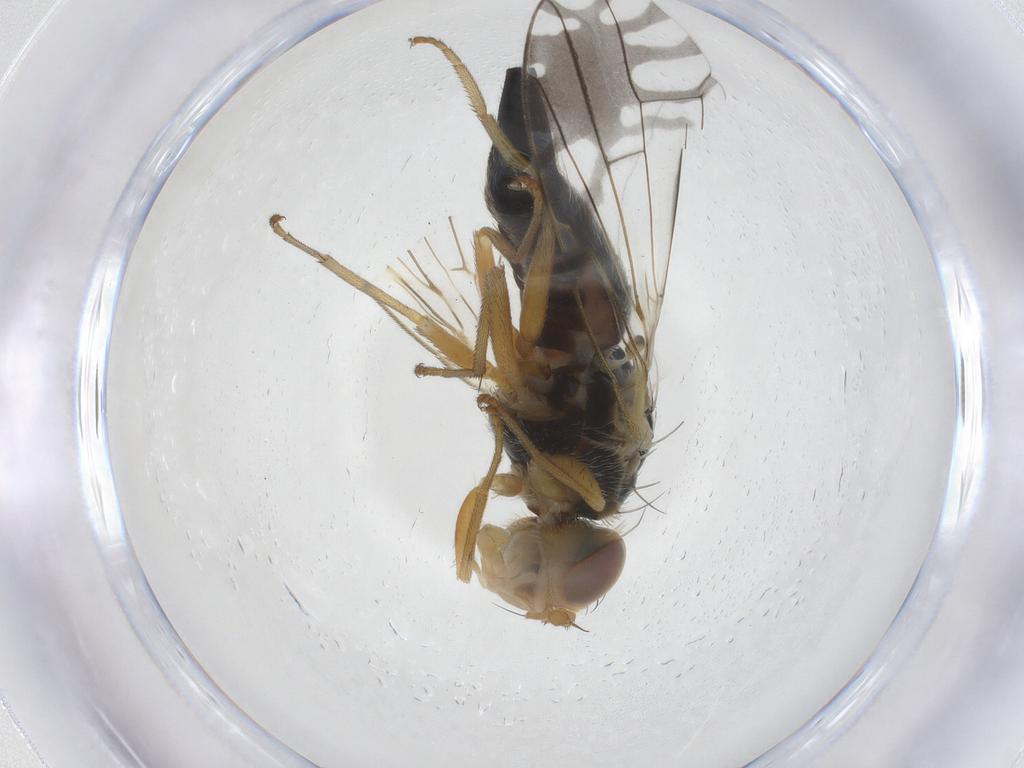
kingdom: Animalia
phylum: Arthropoda
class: Insecta
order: Diptera
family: Tephritidae
